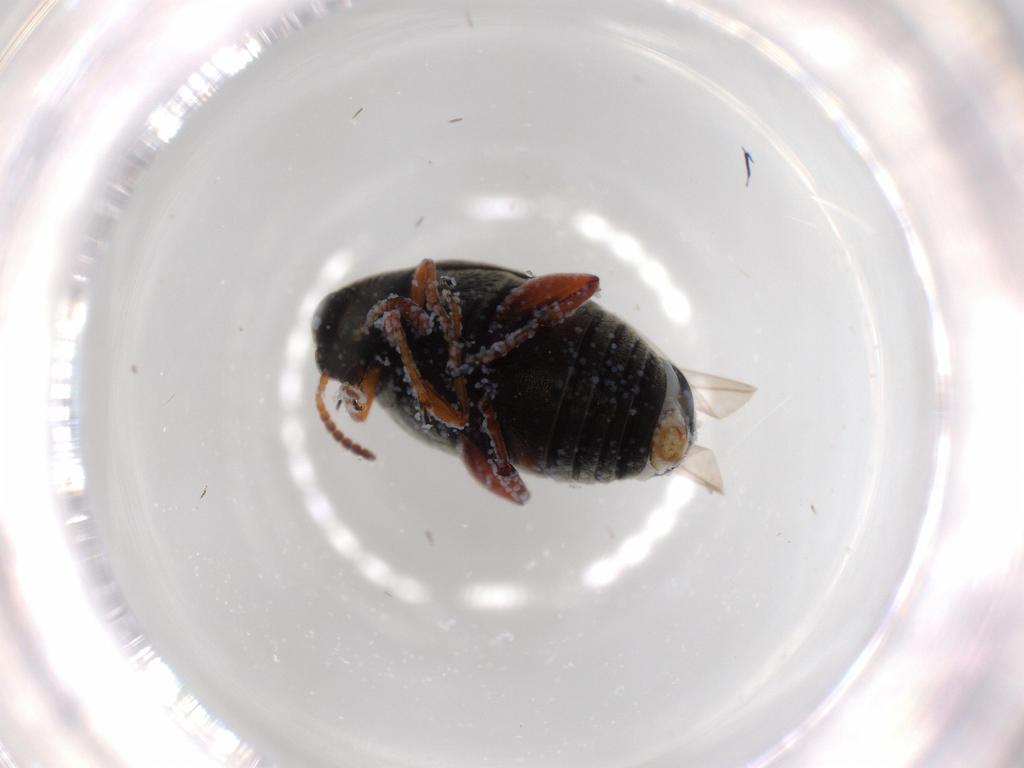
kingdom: Animalia
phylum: Arthropoda
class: Insecta
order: Coleoptera
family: Chrysomelidae
